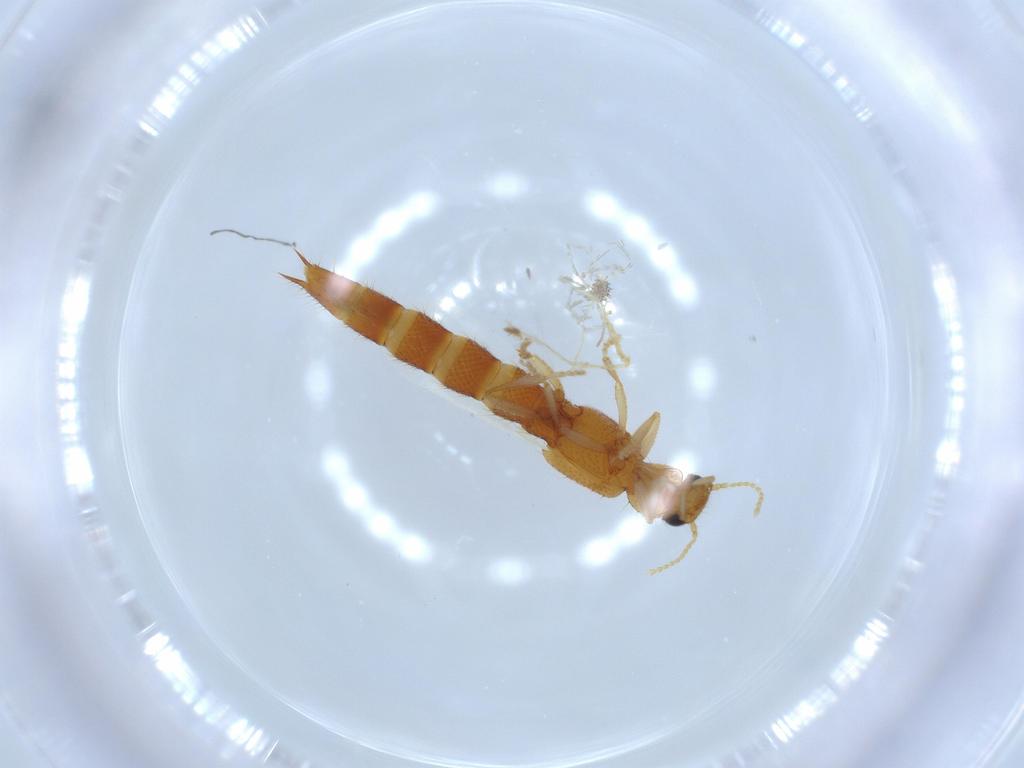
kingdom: Animalia
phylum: Arthropoda
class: Insecta
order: Coleoptera
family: Staphylinidae
